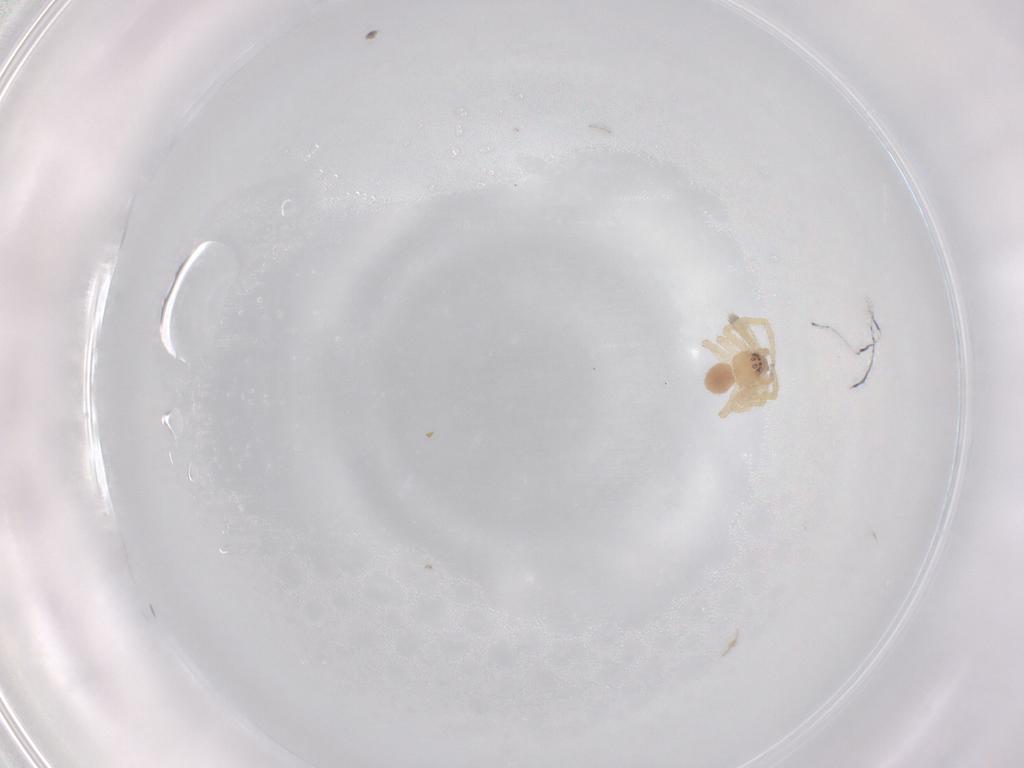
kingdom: Animalia
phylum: Arthropoda
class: Arachnida
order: Araneae
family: Theridiidae
